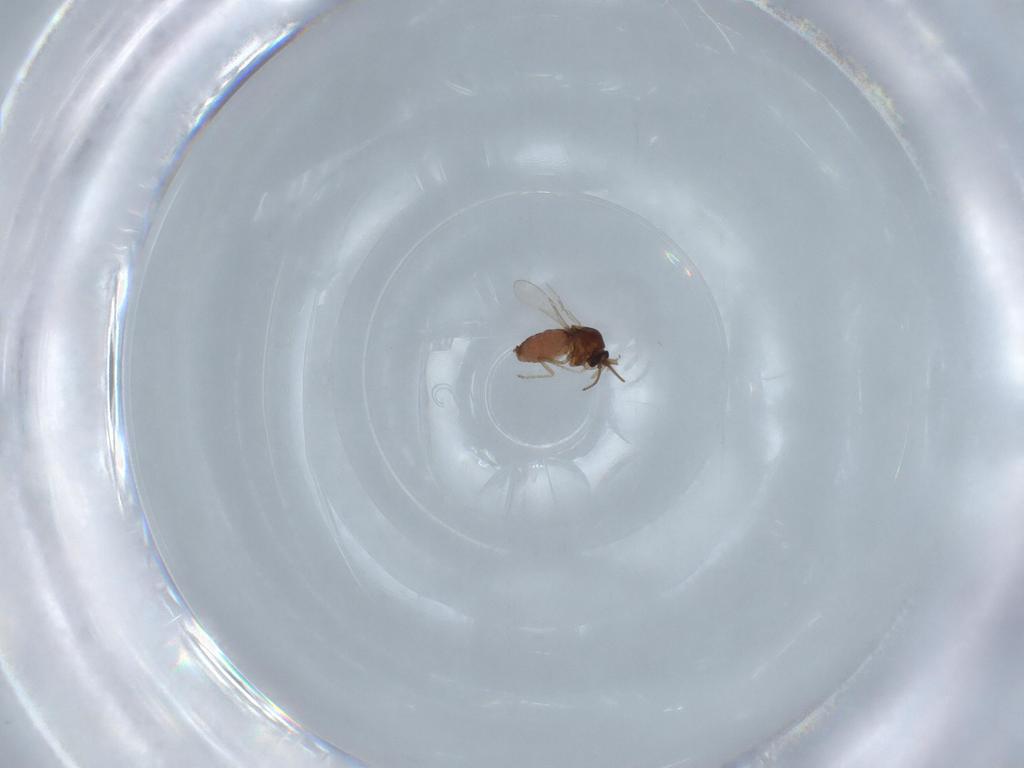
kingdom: Animalia
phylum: Arthropoda
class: Insecta
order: Diptera
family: Ceratopogonidae
